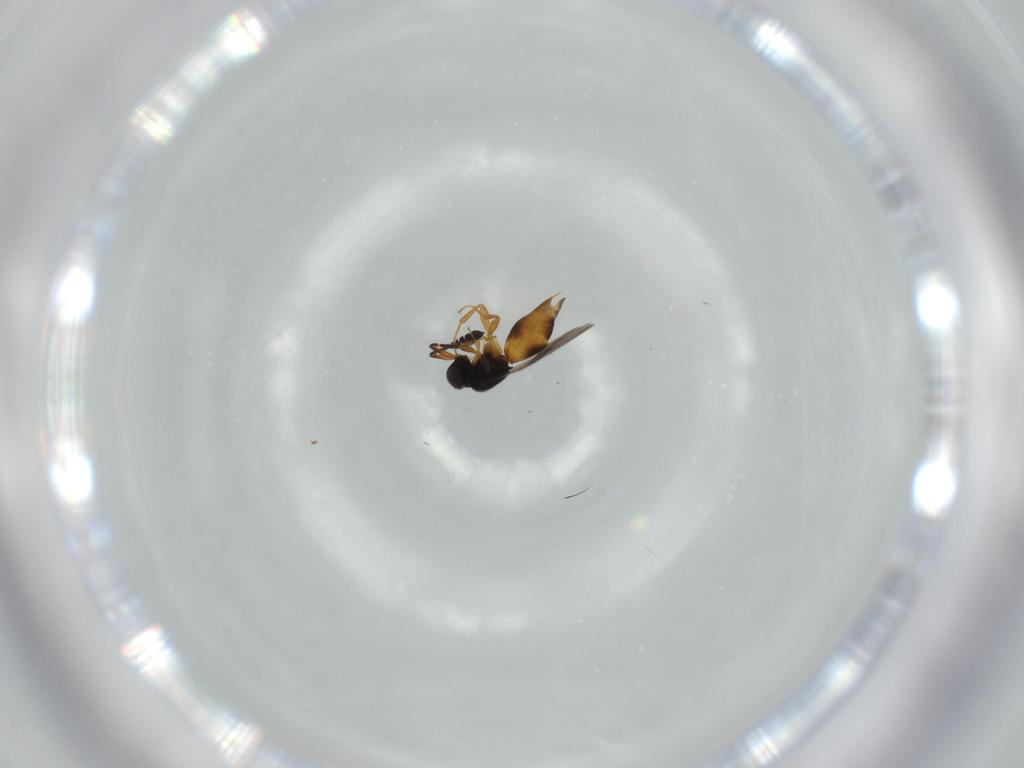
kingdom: Animalia
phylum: Arthropoda
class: Insecta
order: Hymenoptera
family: Ceraphronidae
